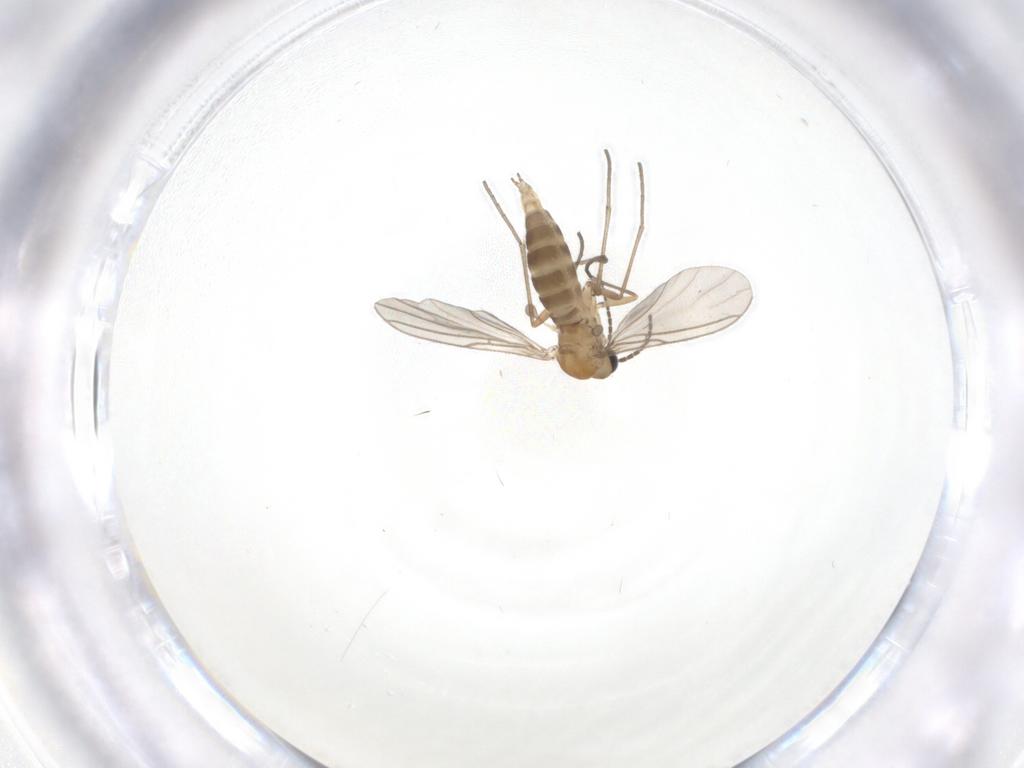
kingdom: Animalia
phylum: Arthropoda
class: Insecta
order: Diptera
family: Sciaridae
